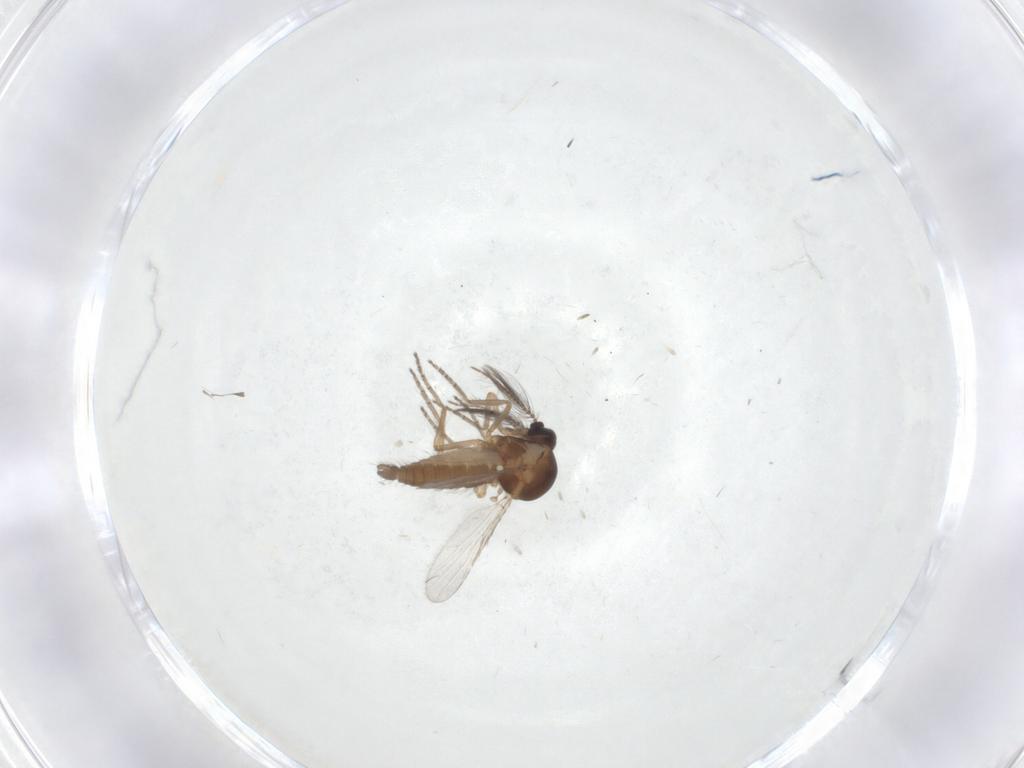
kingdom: Animalia
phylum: Arthropoda
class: Insecta
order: Diptera
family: Ceratopogonidae
